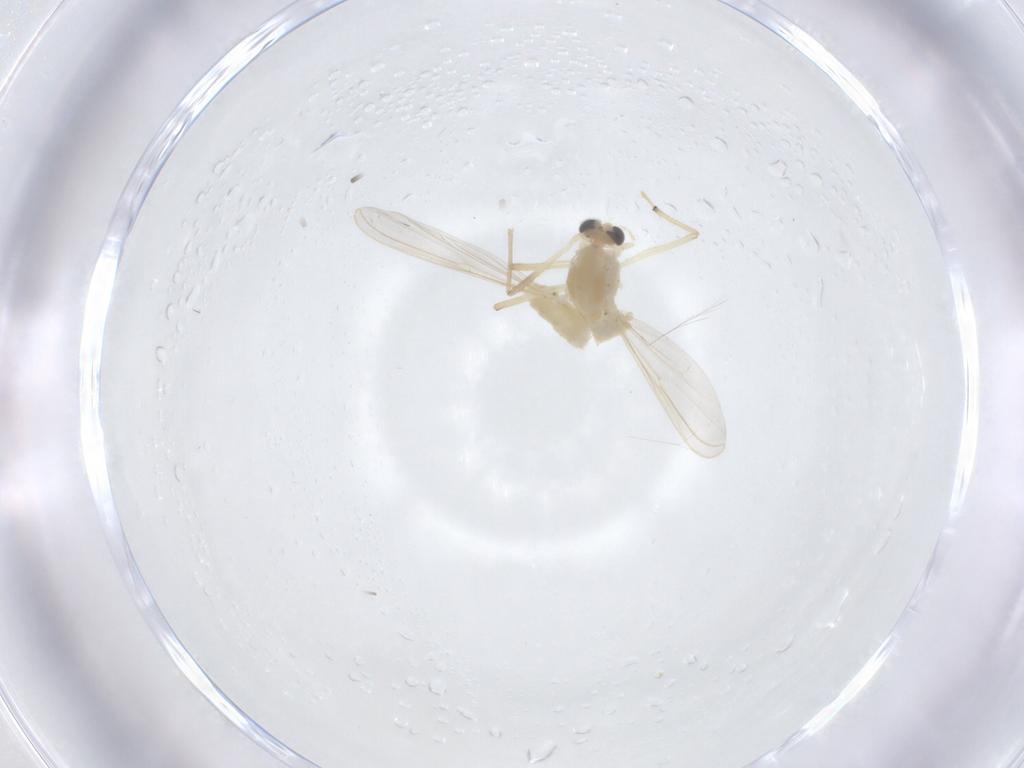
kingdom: Animalia
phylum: Arthropoda
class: Insecta
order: Diptera
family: Chironomidae
